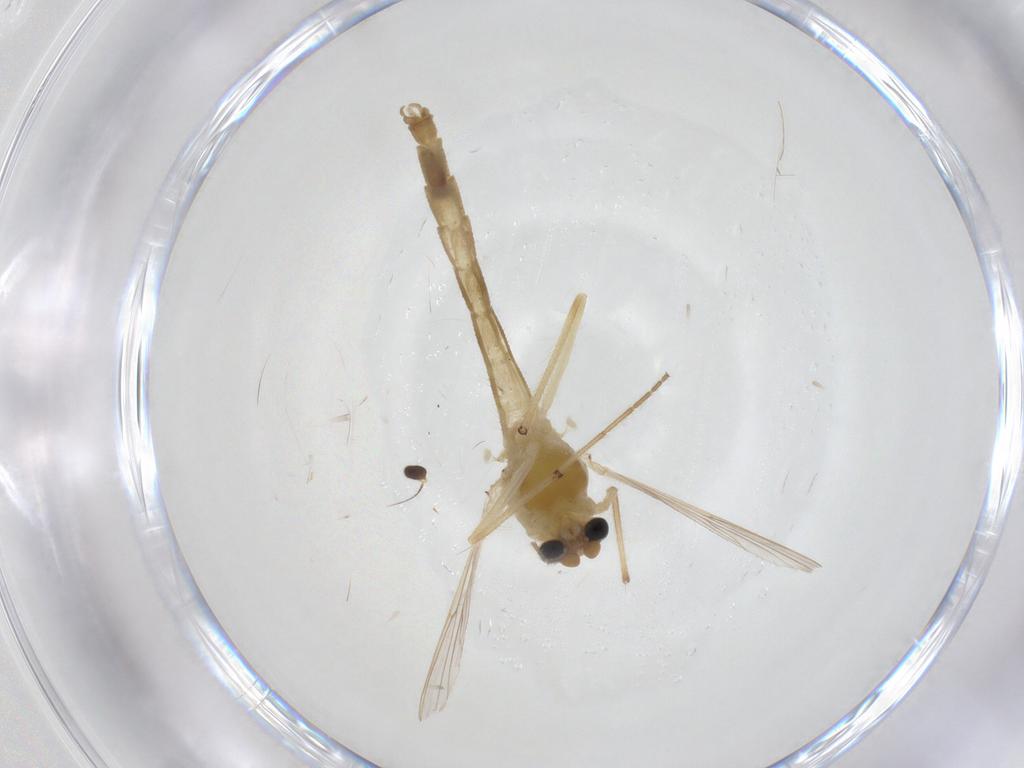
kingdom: Animalia
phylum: Arthropoda
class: Insecta
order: Diptera
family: Chironomidae
